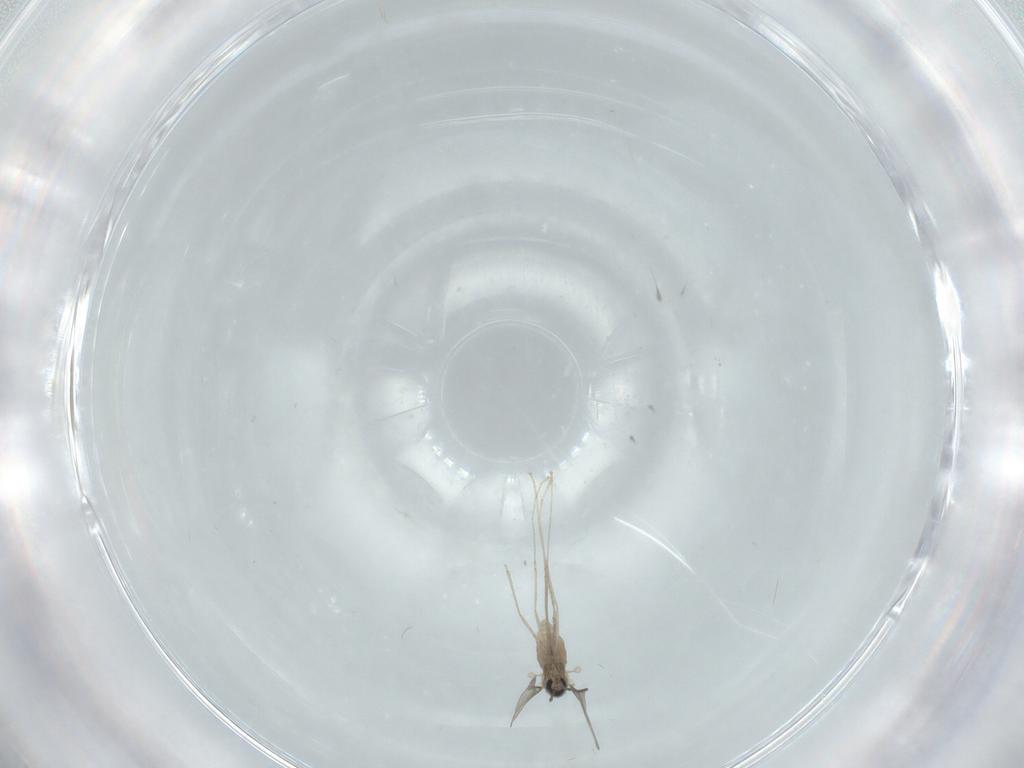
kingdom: Animalia
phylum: Arthropoda
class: Insecta
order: Diptera
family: Cecidomyiidae
